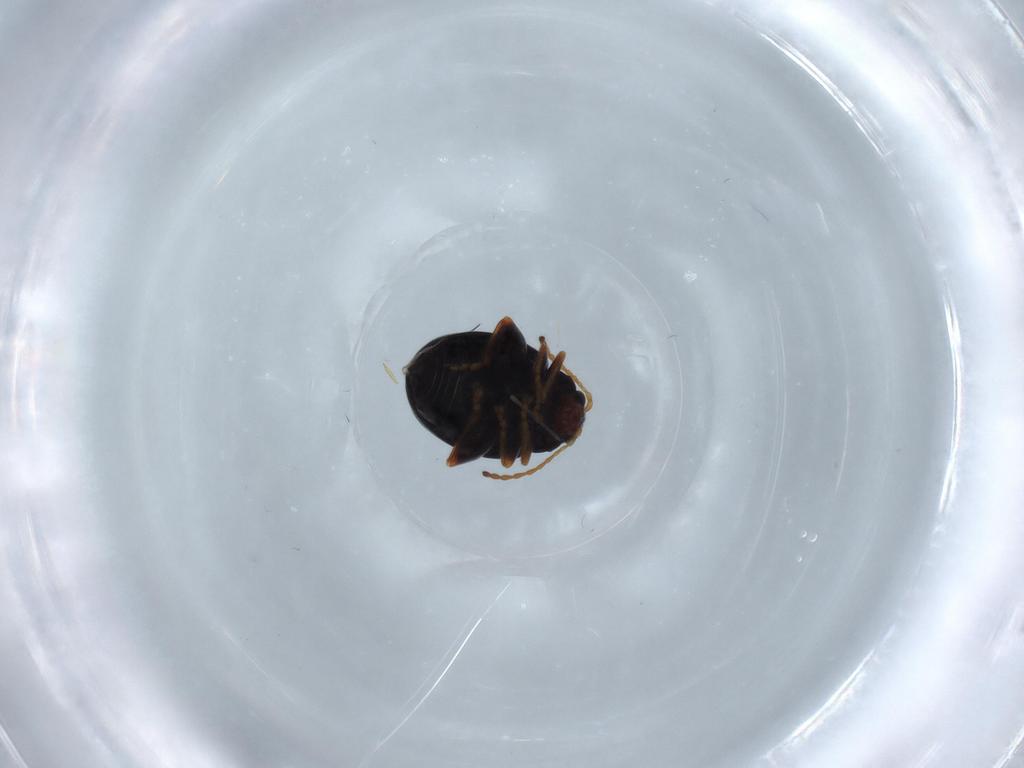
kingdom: Animalia
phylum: Arthropoda
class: Insecta
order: Coleoptera
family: Chrysomelidae
